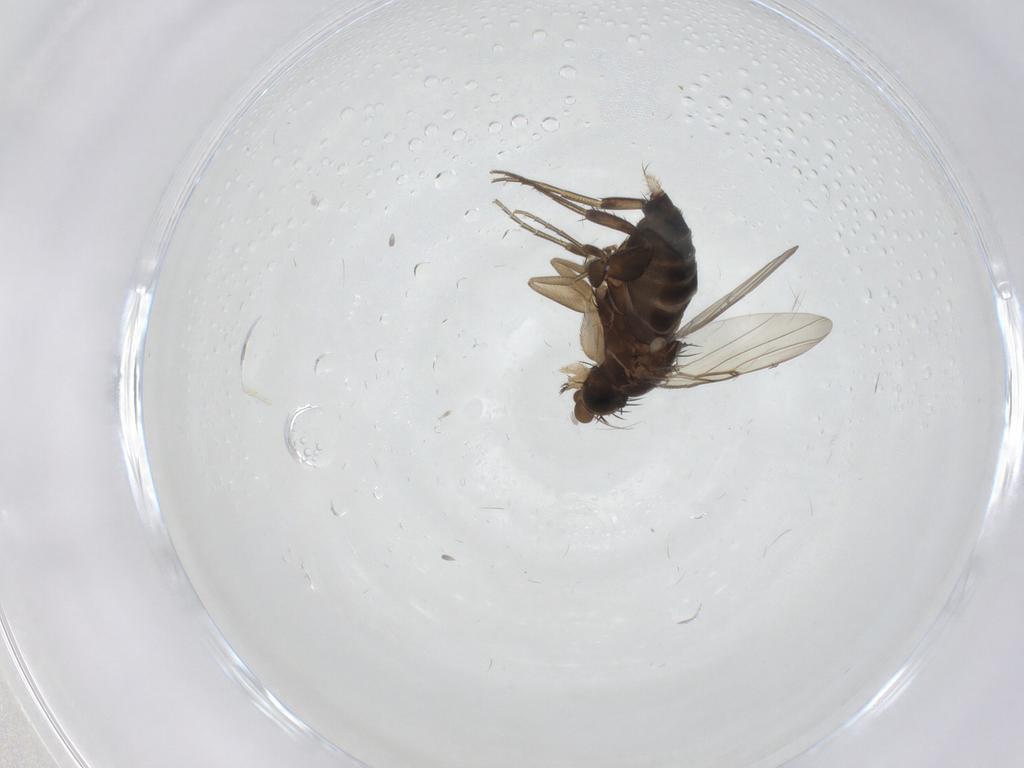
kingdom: Animalia
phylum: Arthropoda
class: Insecta
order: Diptera
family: Phoridae
